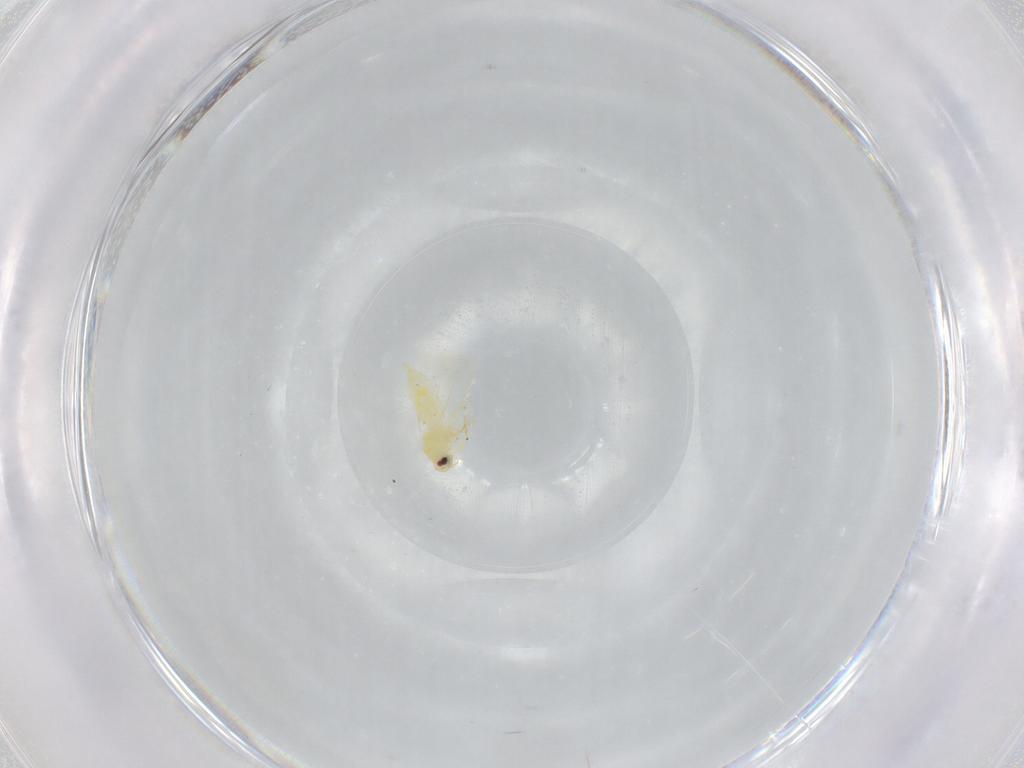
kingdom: Animalia
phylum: Arthropoda
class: Insecta
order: Hemiptera
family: Aleyrodidae
